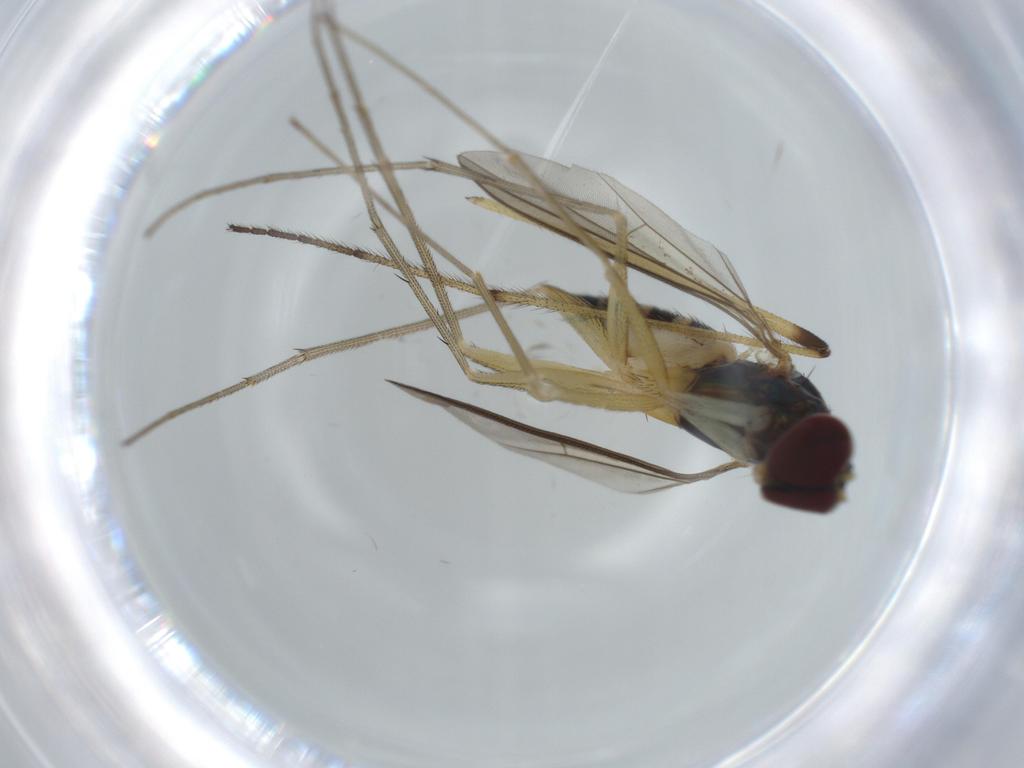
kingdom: Animalia
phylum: Arthropoda
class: Insecta
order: Diptera
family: Dolichopodidae
